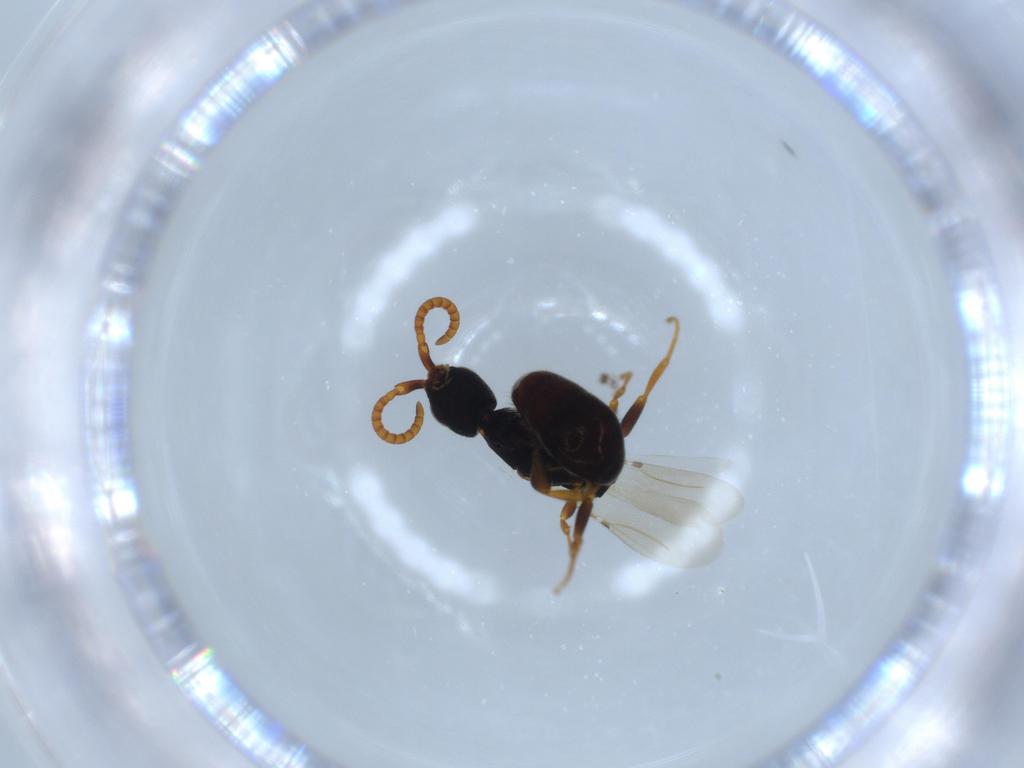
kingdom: Animalia
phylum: Arthropoda
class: Insecta
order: Hymenoptera
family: Bethylidae
